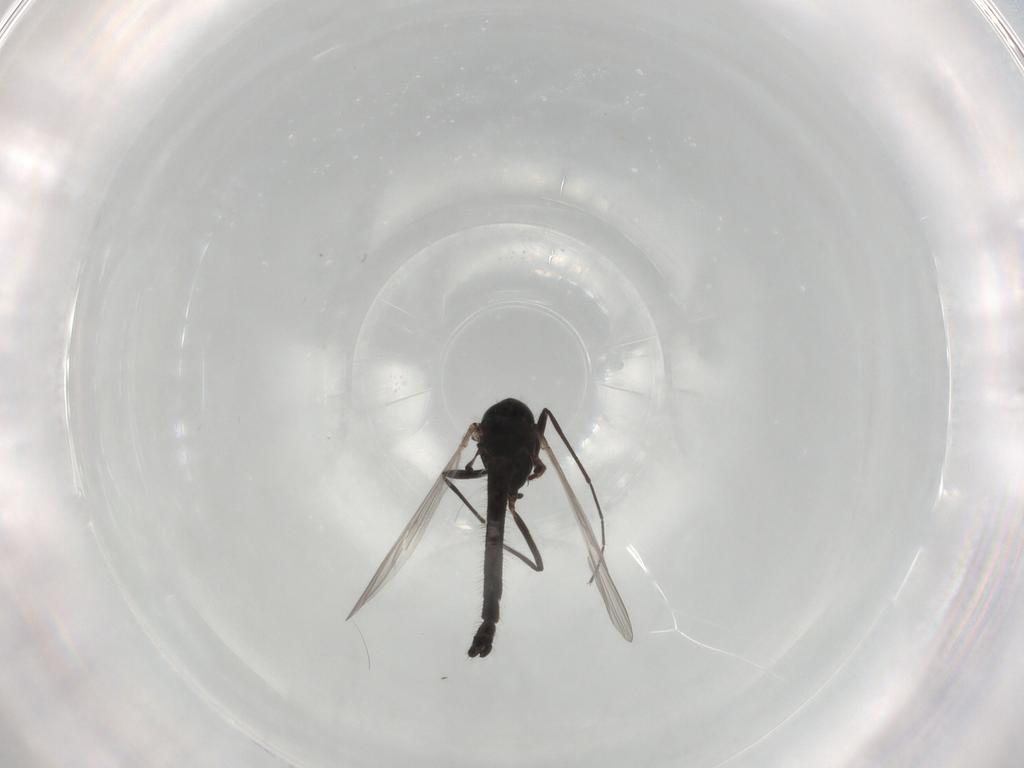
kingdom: Animalia
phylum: Arthropoda
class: Insecta
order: Diptera
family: Chironomidae
